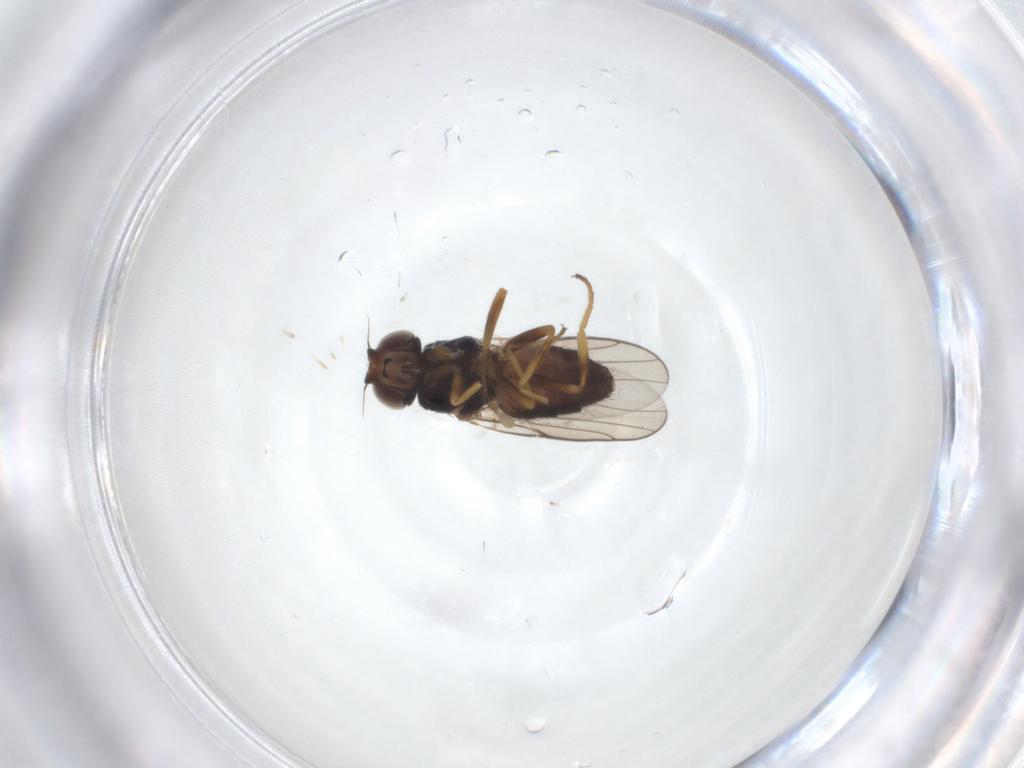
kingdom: Animalia
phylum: Arthropoda
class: Insecta
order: Diptera
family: Chloropidae
